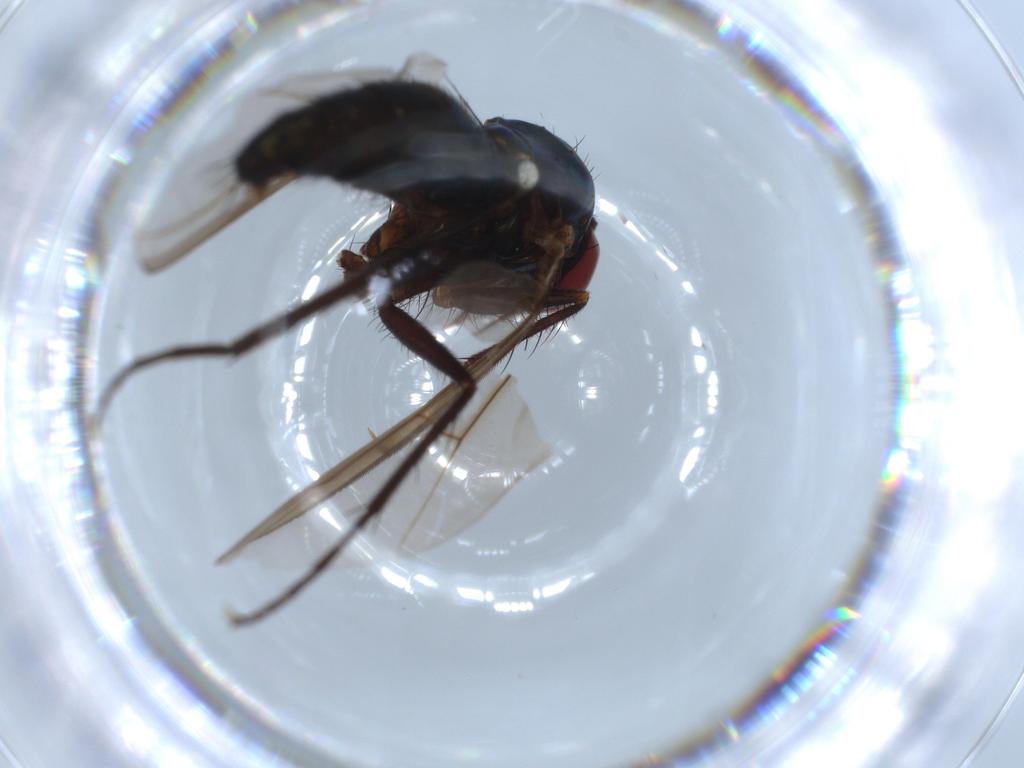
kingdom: Animalia
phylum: Arthropoda
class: Insecta
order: Diptera
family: Dolichopodidae
